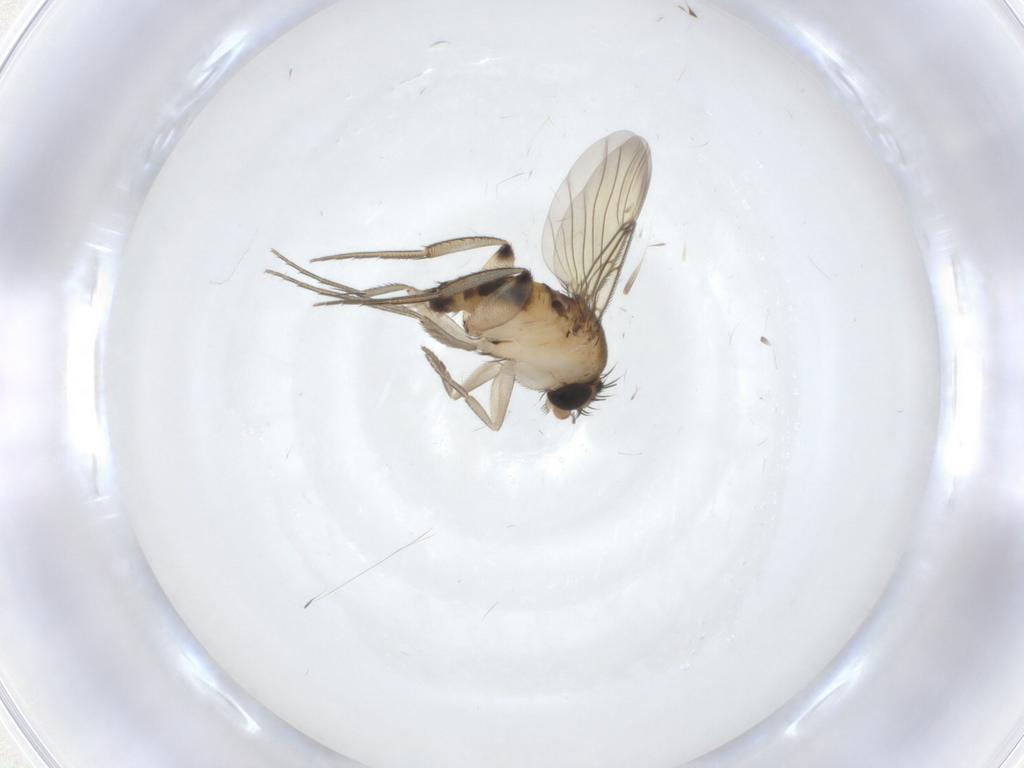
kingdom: Animalia
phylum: Arthropoda
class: Insecta
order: Diptera
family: Phoridae
